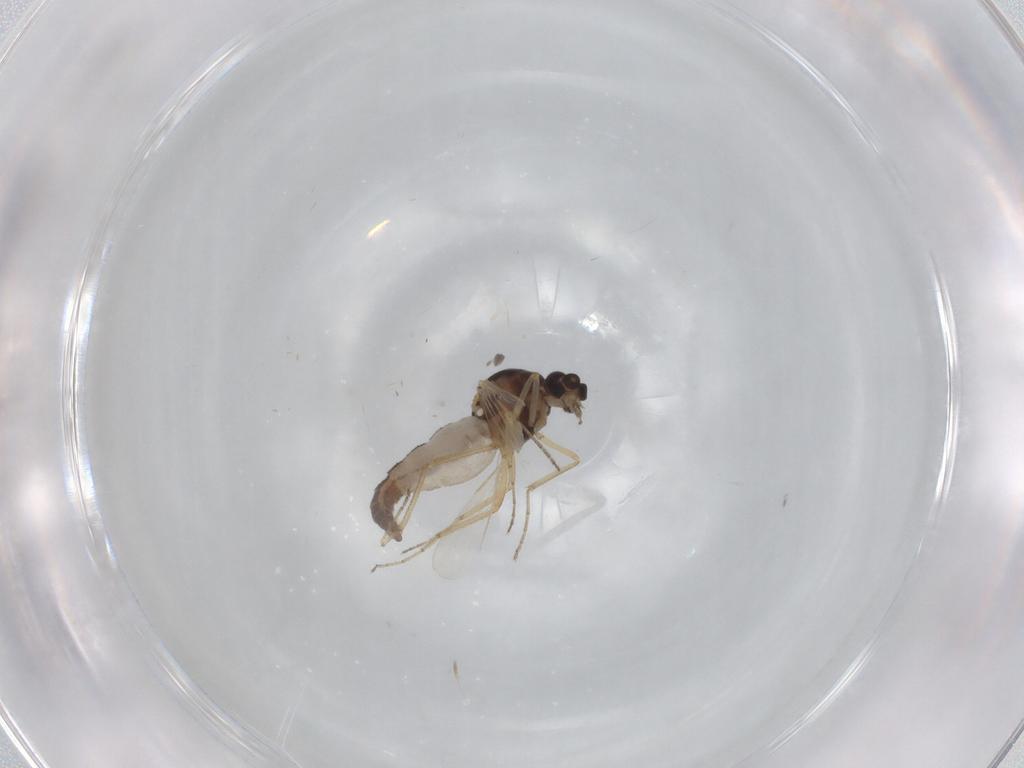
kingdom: Animalia
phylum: Arthropoda
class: Insecta
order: Diptera
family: Ceratopogonidae
